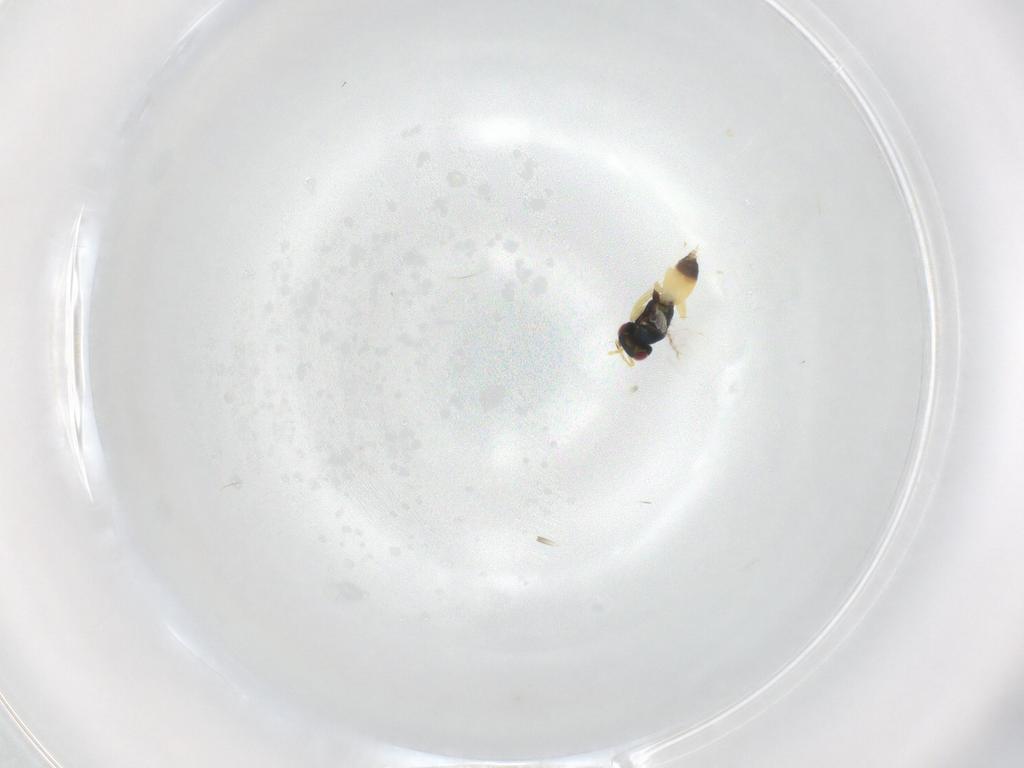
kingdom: Animalia
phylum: Arthropoda
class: Insecta
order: Hymenoptera
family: Pteromalidae
